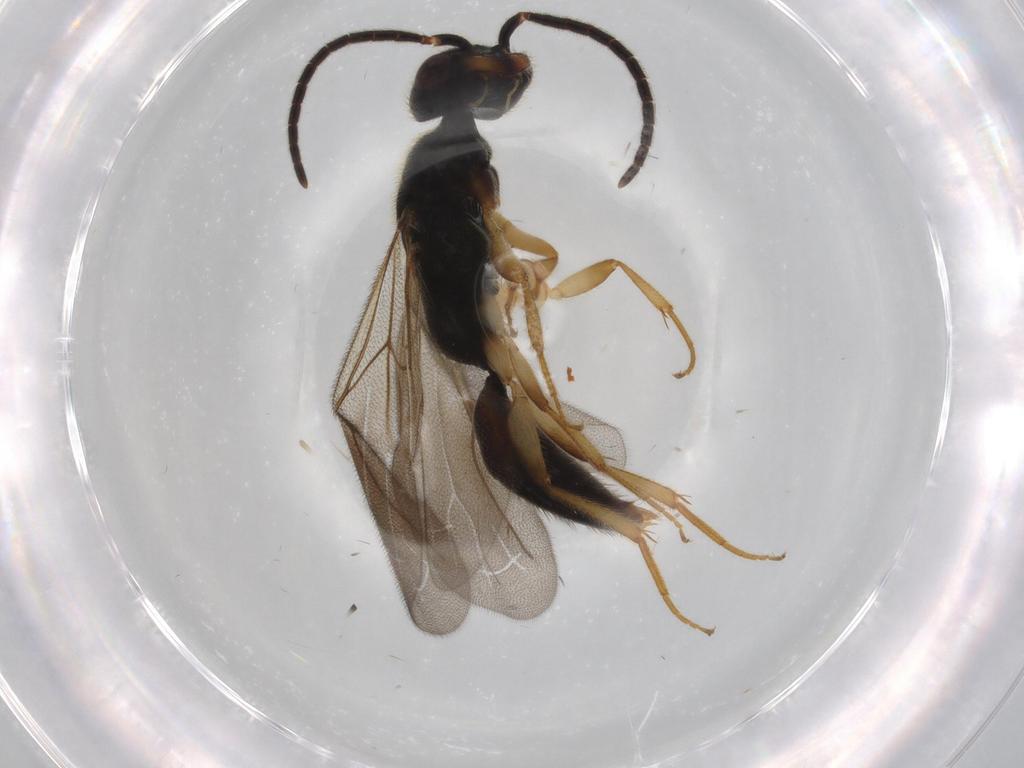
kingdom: Animalia
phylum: Arthropoda
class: Insecta
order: Hymenoptera
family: Bethylidae
